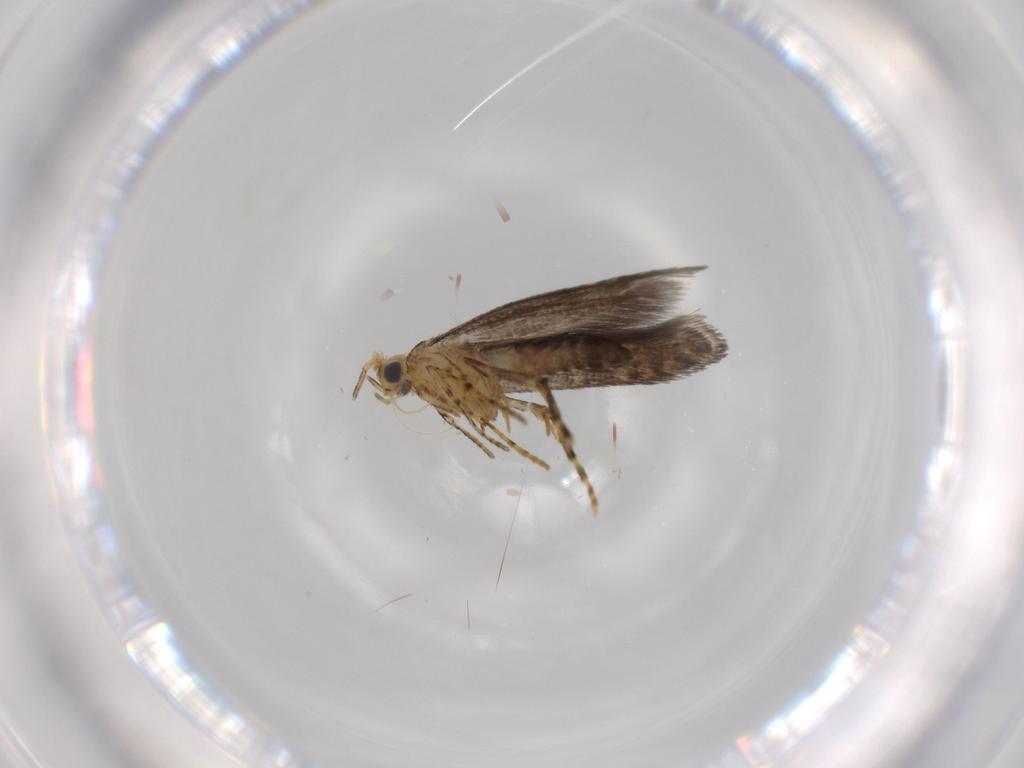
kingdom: Animalia
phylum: Arthropoda
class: Insecta
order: Lepidoptera
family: Argyresthiidae
